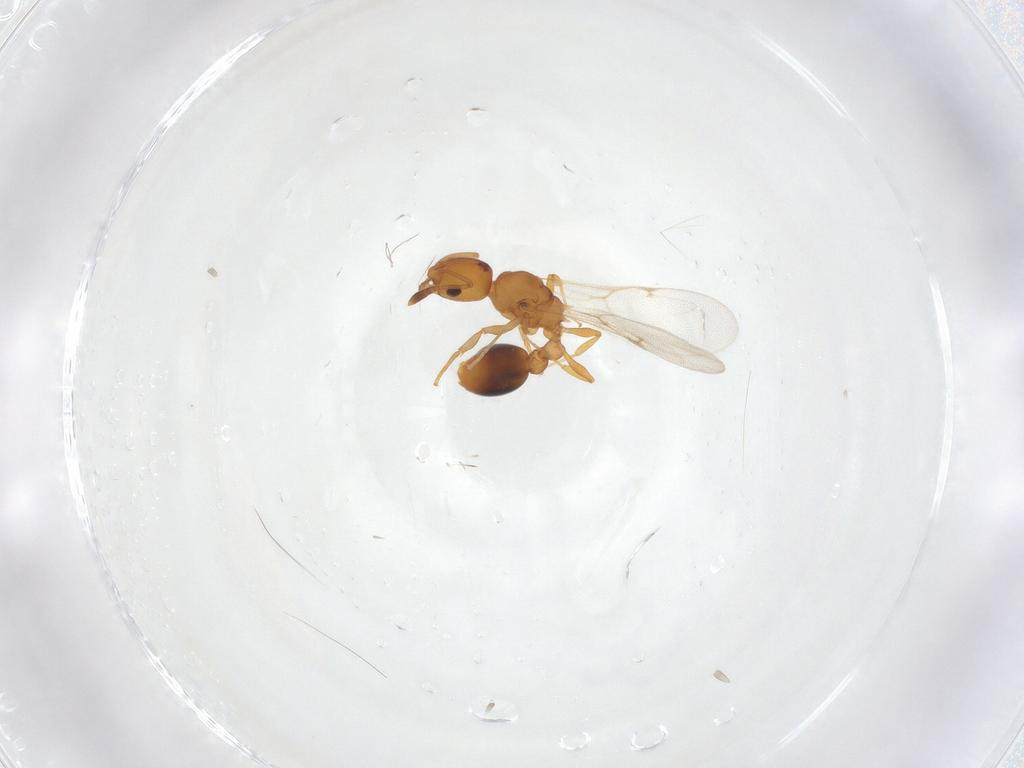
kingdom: Animalia
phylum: Arthropoda
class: Insecta
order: Hymenoptera
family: Formicidae
